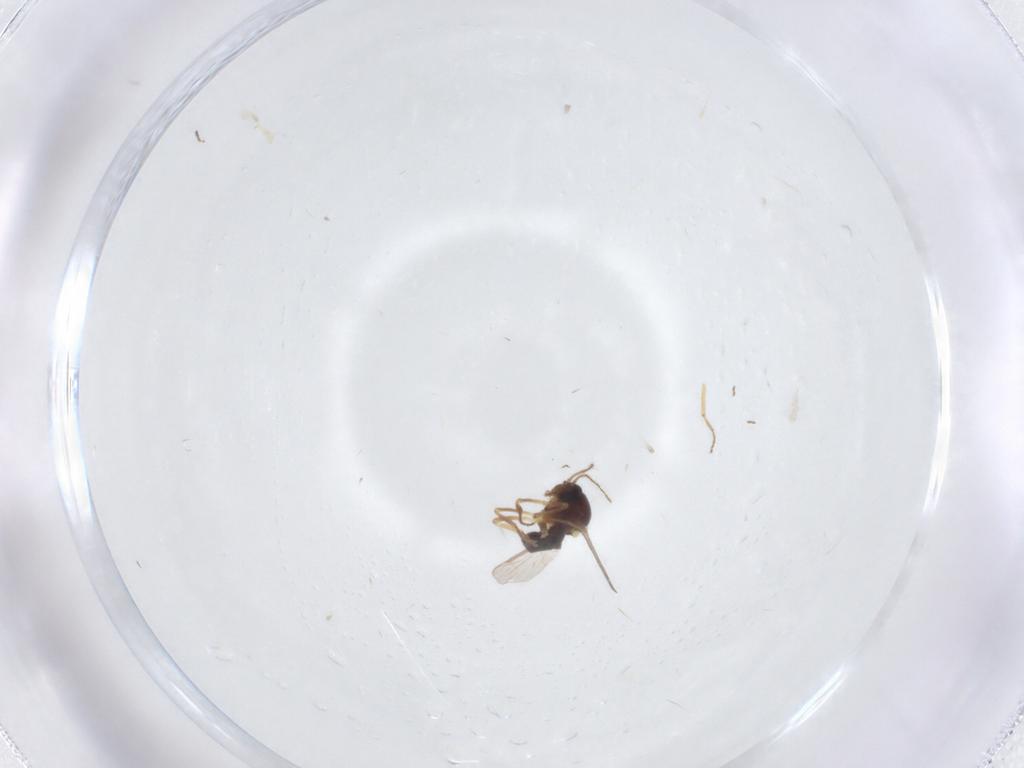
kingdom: Animalia
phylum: Arthropoda
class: Insecta
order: Diptera
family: Ceratopogonidae
